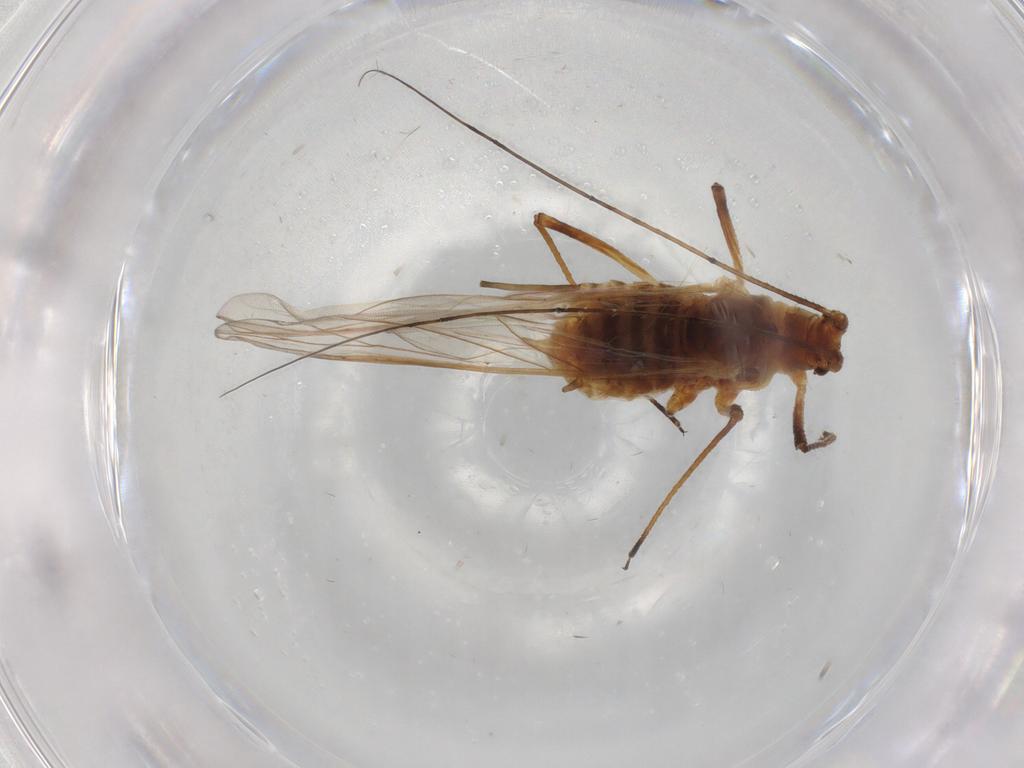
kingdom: Animalia
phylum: Arthropoda
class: Insecta
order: Hemiptera
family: Aphididae
